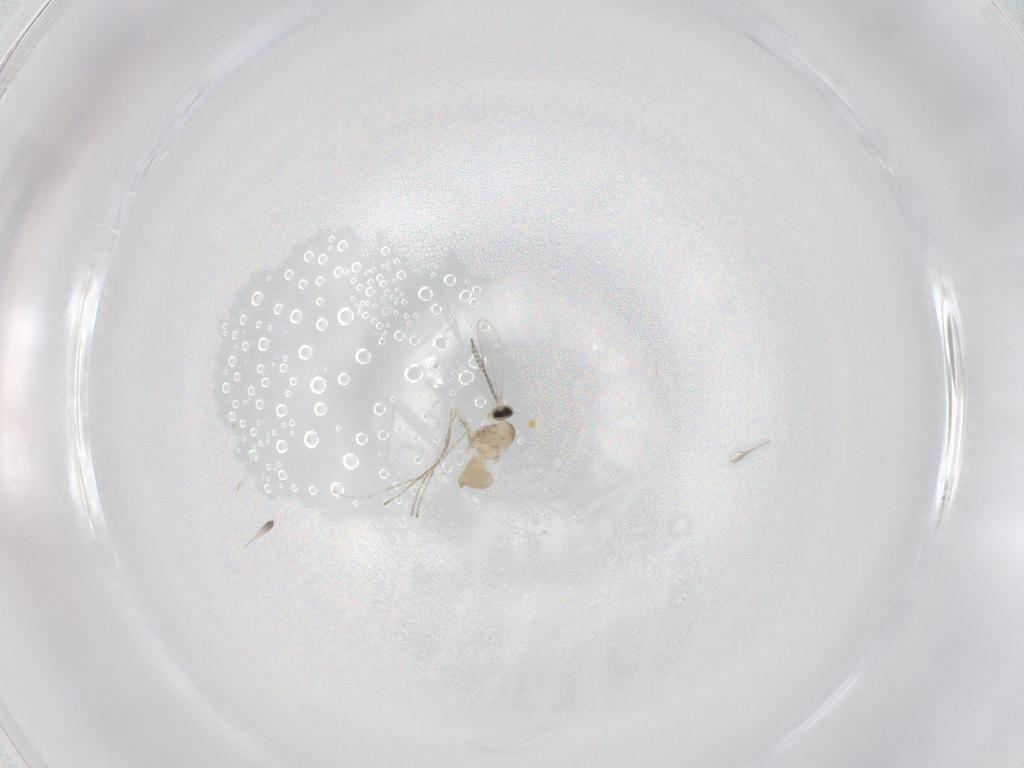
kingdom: Animalia
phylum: Arthropoda
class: Insecta
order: Diptera
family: Cecidomyiidae
